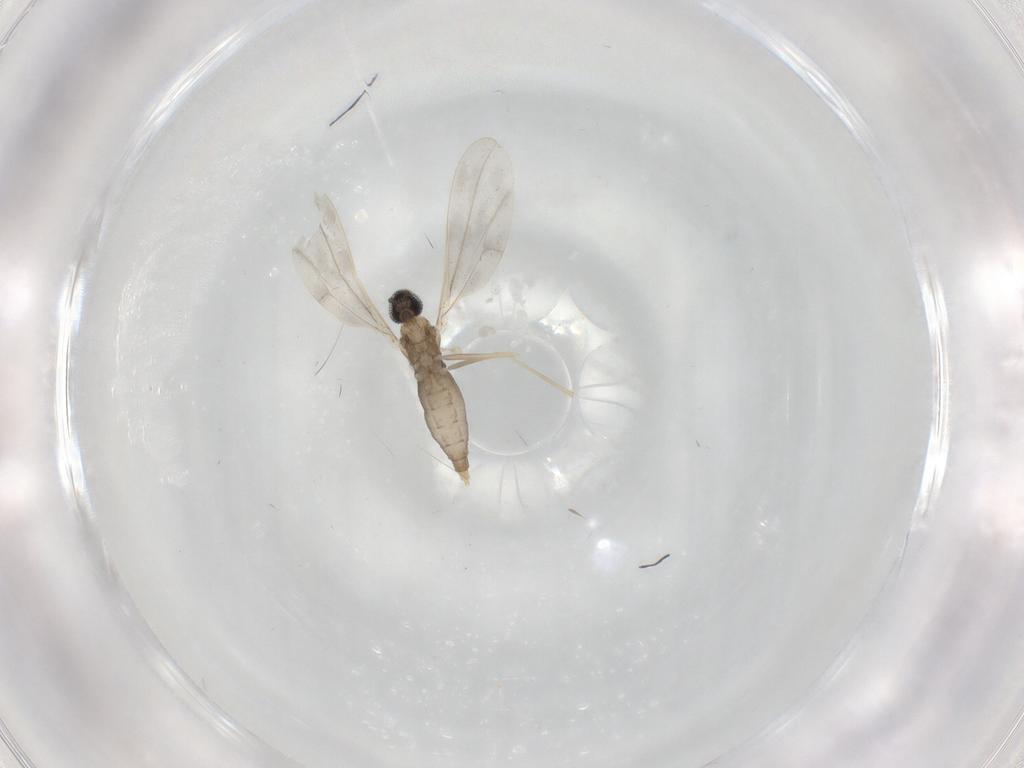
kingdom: Animalia
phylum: Arthropoda
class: Insecta
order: Diptera
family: Cecidomyiidae
